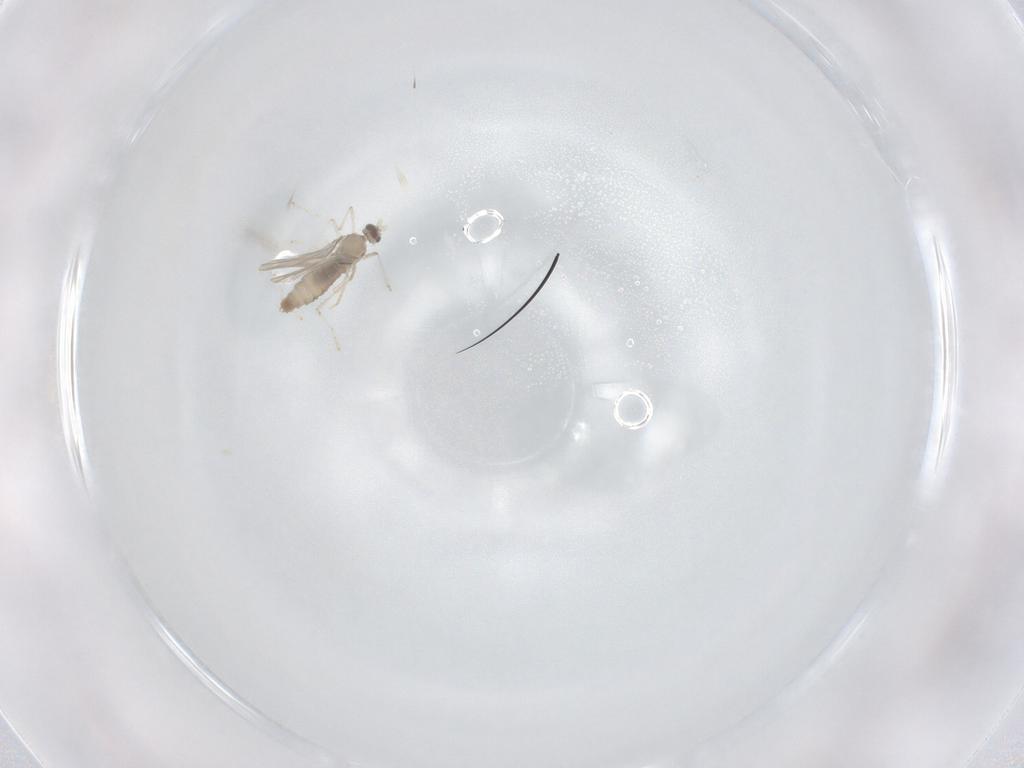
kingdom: Animalia
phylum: Arthropoda
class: Insecta
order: Diptera
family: Cecidomyiidae
